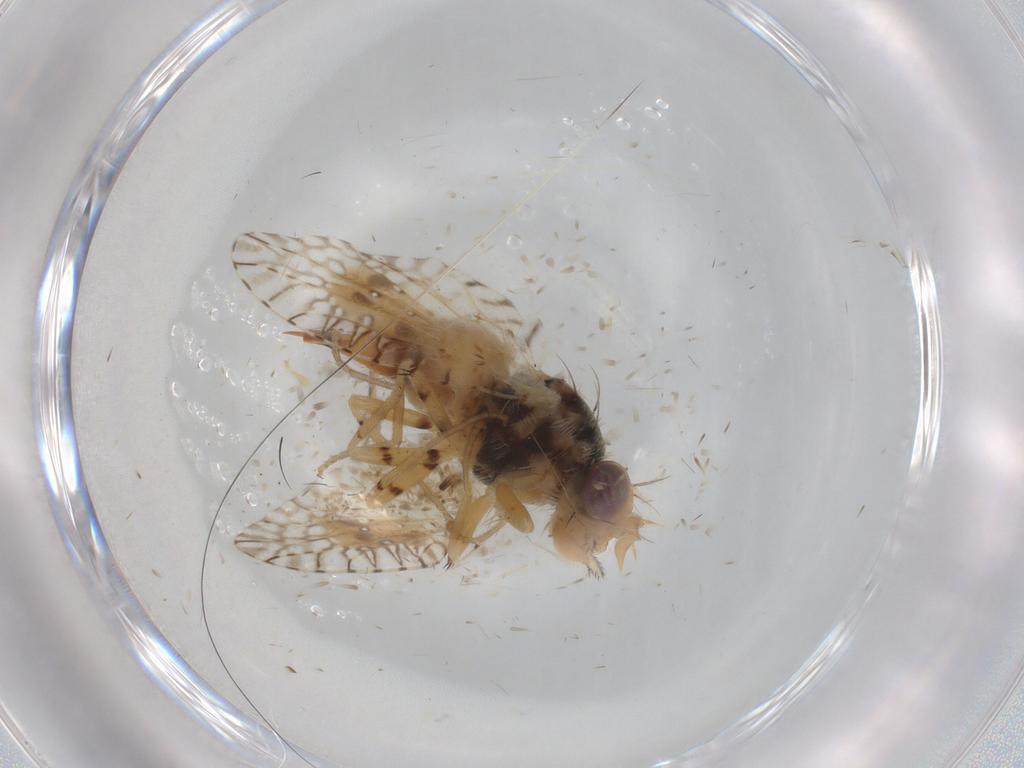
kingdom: Animalia
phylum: Arthropoda
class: Insecta
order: Diptera
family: Tephritidae
